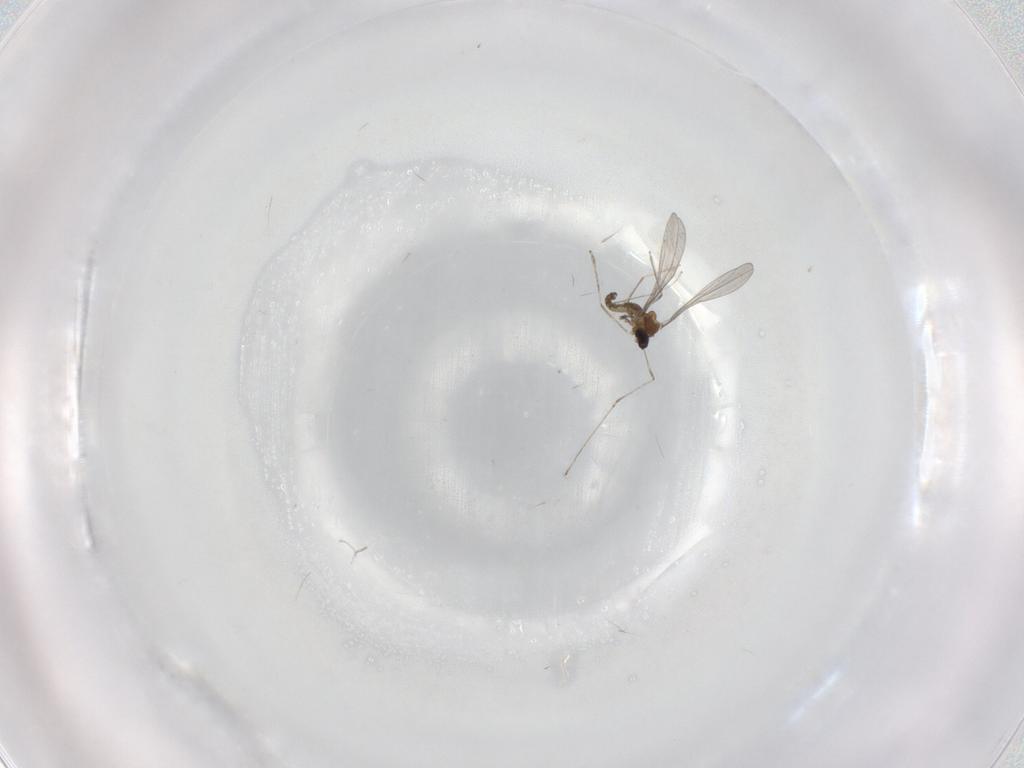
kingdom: Animalia
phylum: Arthropoda
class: Insecta
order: Diptera
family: Cecidomyiidae
